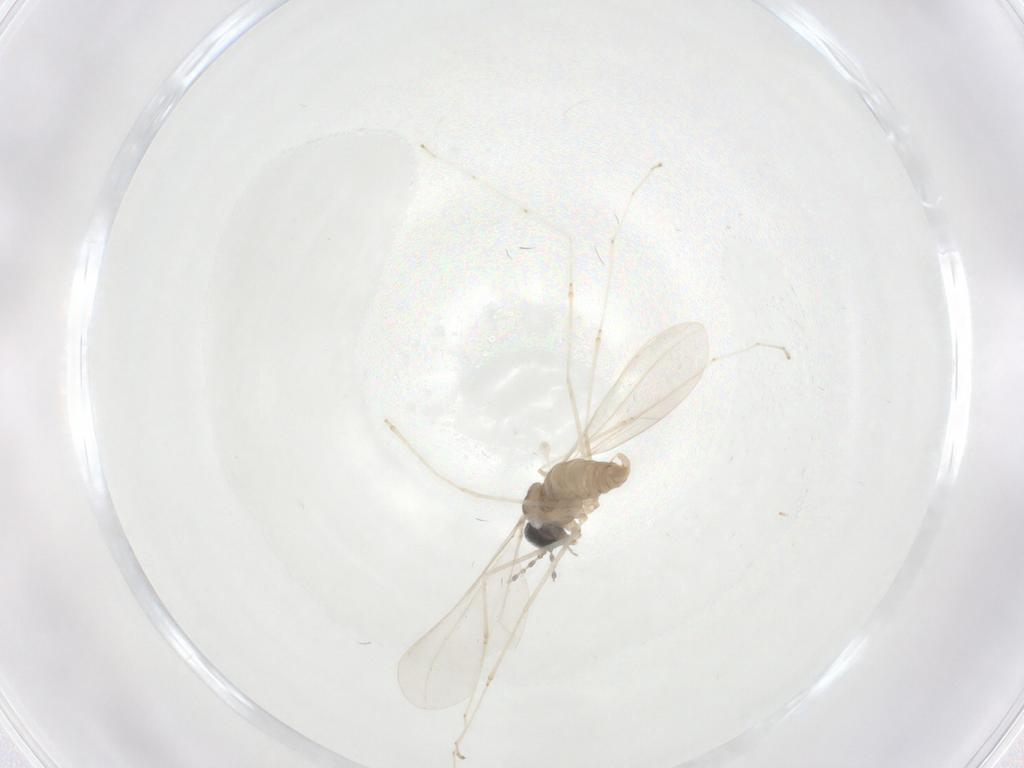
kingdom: Animalia
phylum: Arthropoda
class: Insecta
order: Diptera
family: Cecidomyiidae
